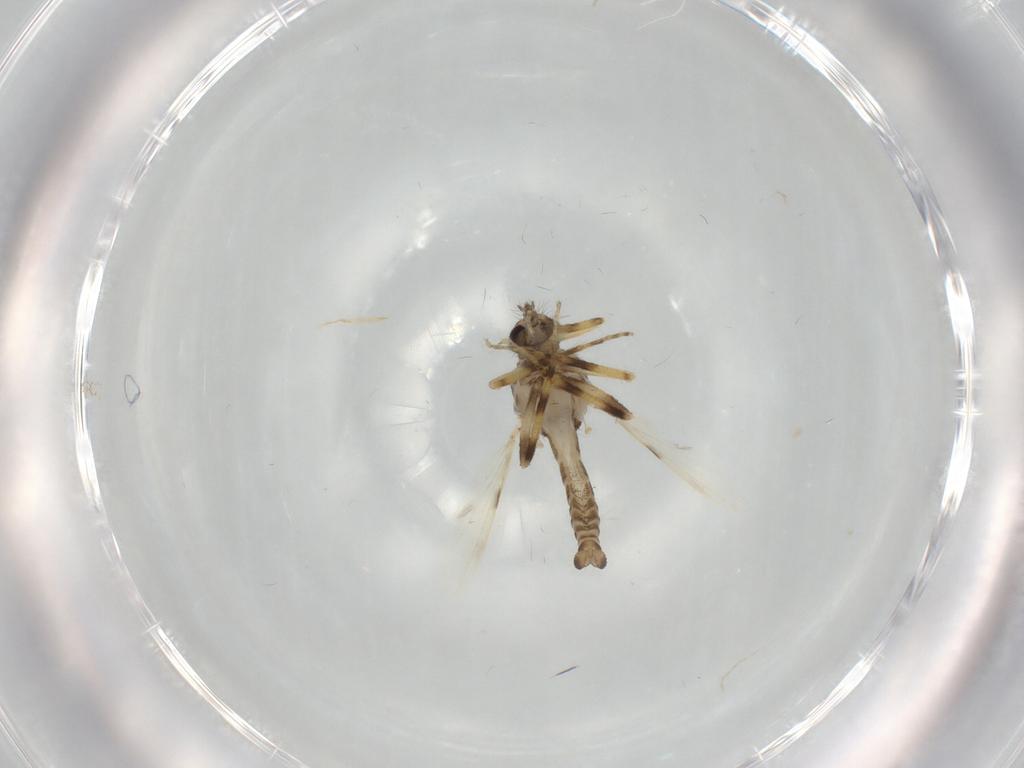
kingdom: Animalia
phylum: Arthropoda
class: Insecta
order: Diptera
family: Ceratopogonidae
